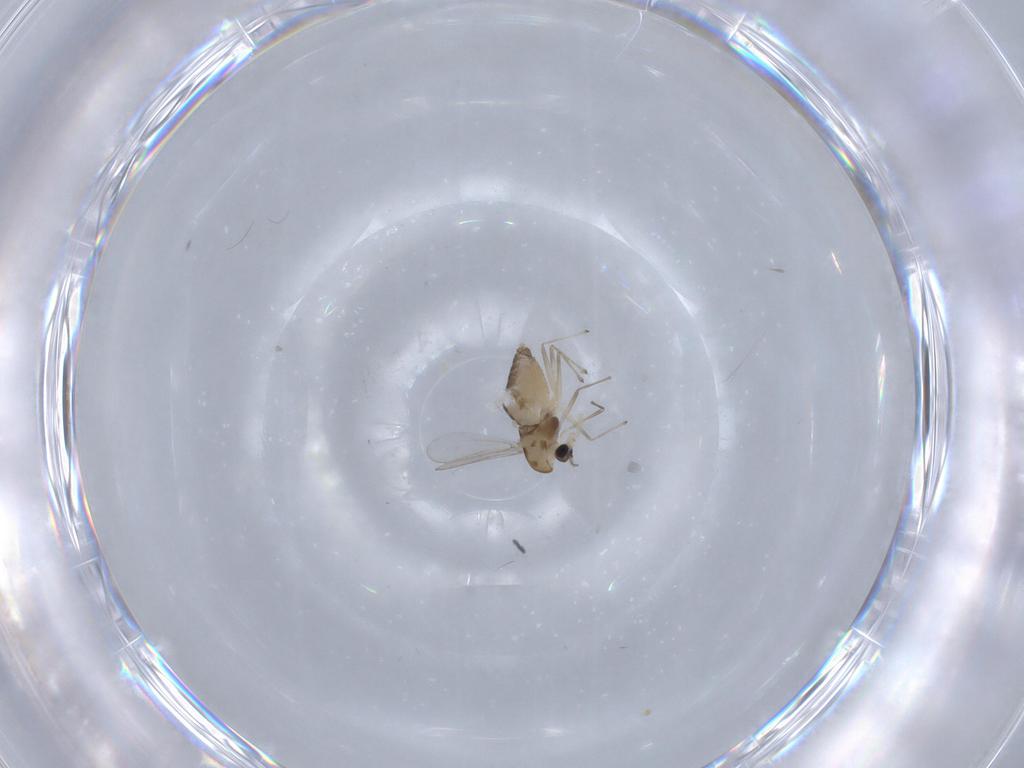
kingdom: Animalia
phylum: Arthropoda
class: Insecta
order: Diptera
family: Chironomidae
